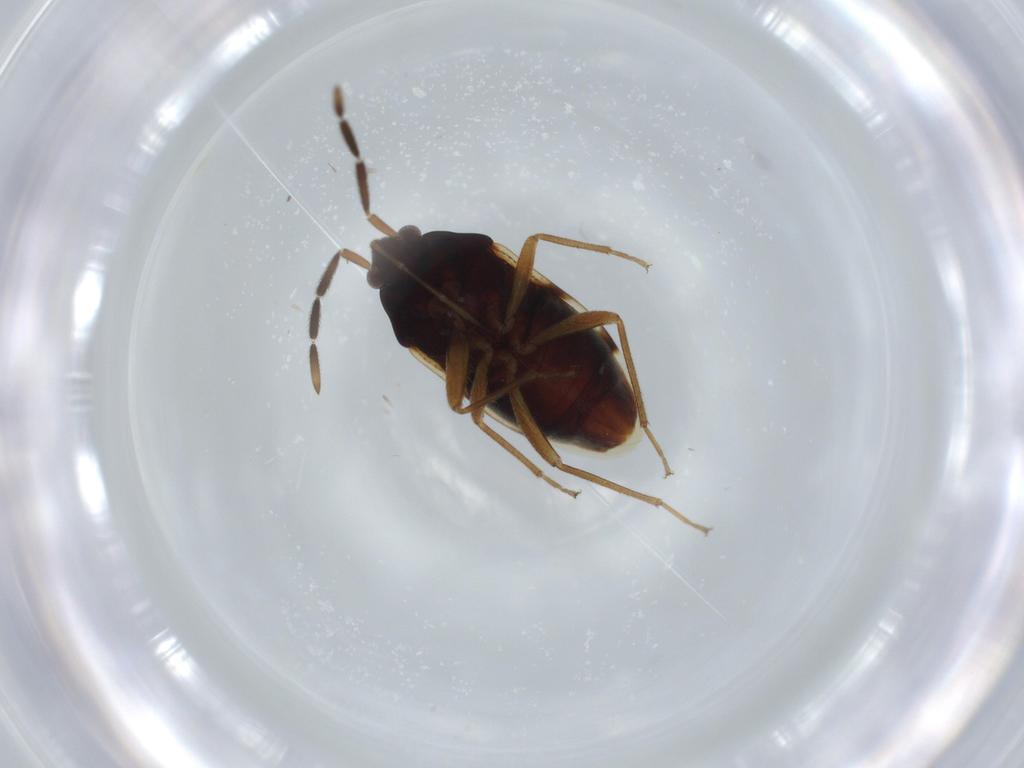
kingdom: Animalia
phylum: Arthropoda
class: Insecta
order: Hemiptera
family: Rhyparochromidae
